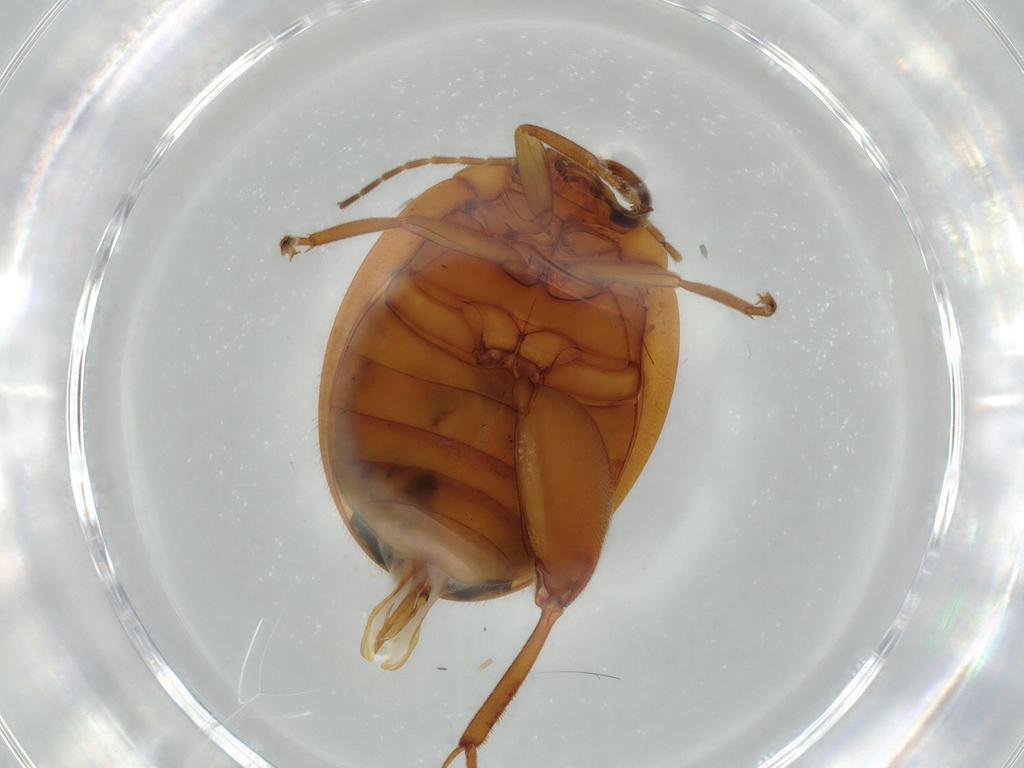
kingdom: Animalia
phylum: Arthropoda
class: Insecta
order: Coleoptera
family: Scirtidae
